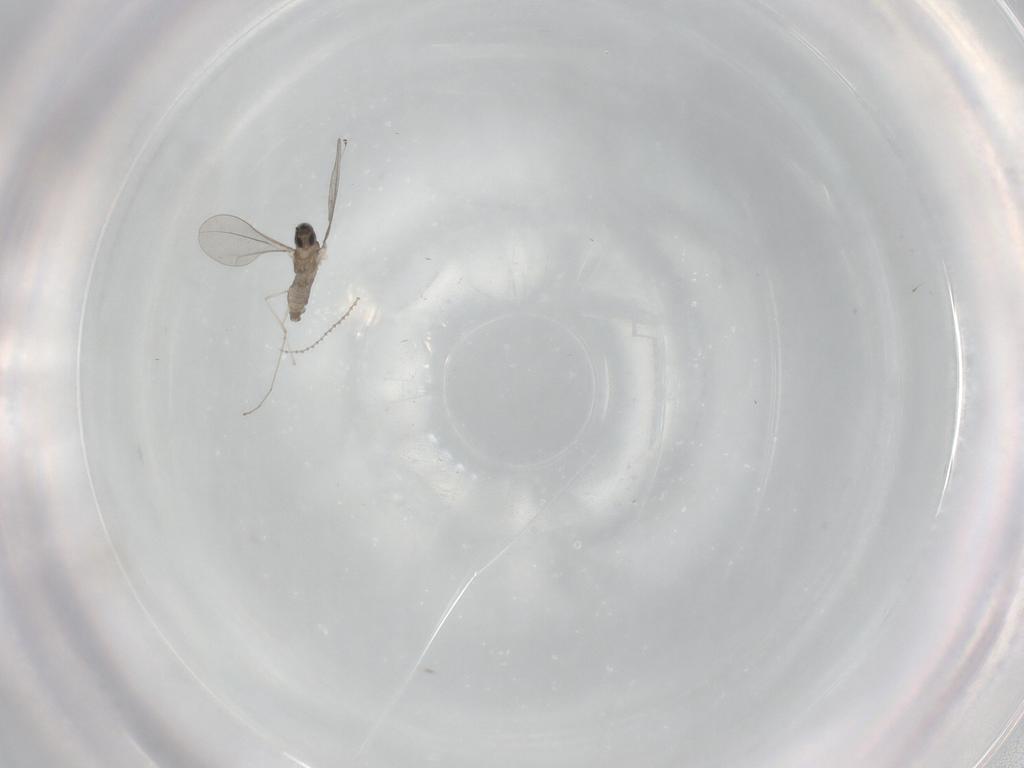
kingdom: Animalia
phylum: Arthropoda
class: Insecta
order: Diptera
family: Cecidomyiidae
